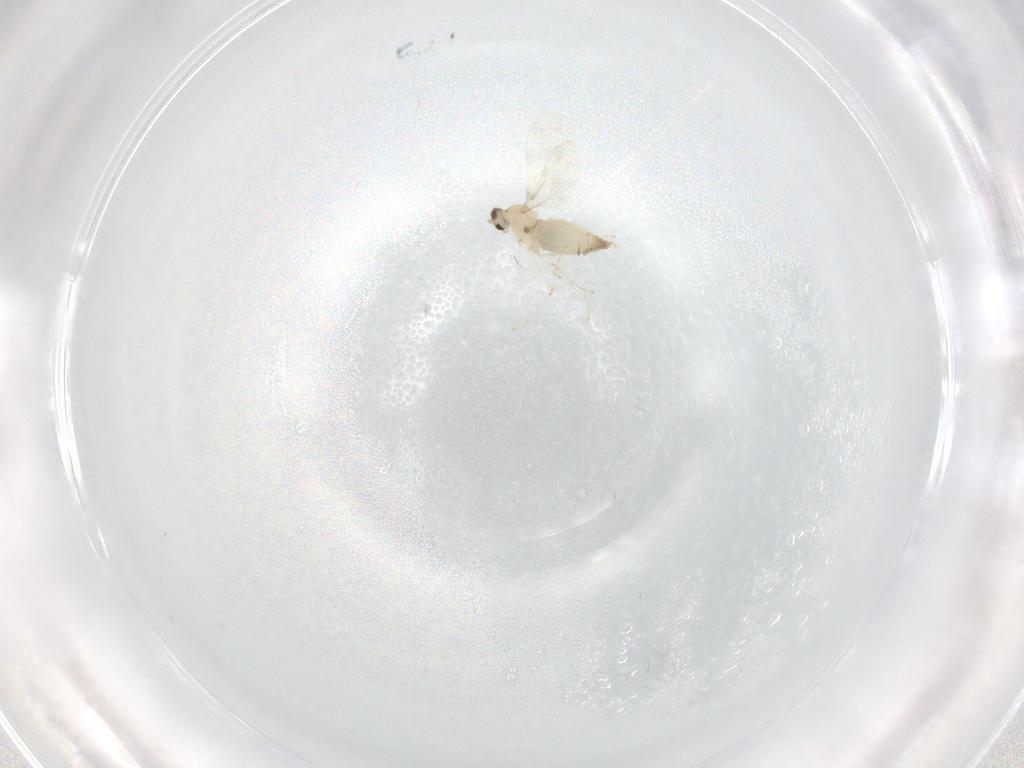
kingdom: Animalia
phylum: Arthropoda
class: Insecta
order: Diptera
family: Cecidomyiidae
